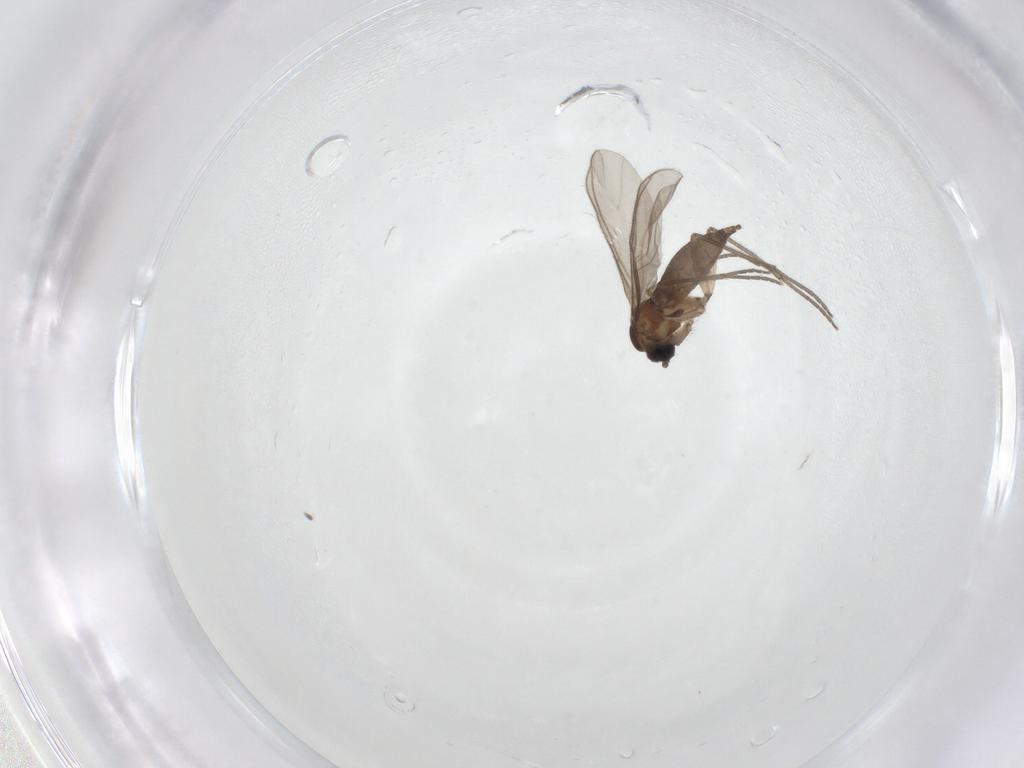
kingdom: Animalia
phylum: Arthropoda
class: Insecta
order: Diptera
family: Sciaridae
